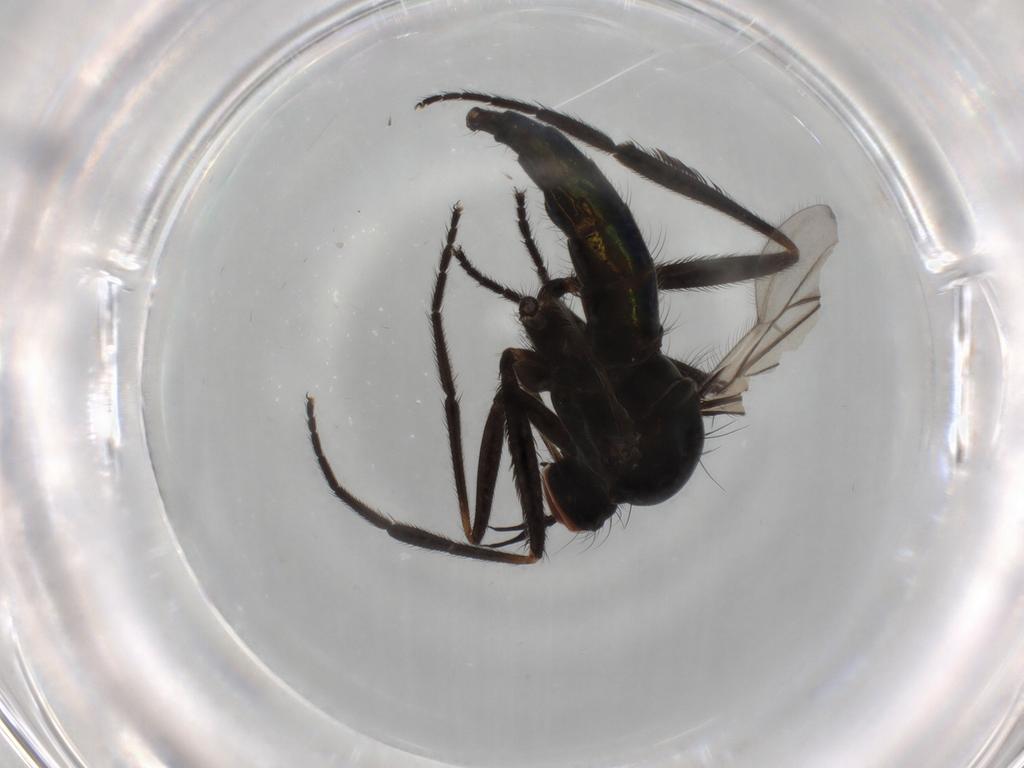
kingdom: Animalia
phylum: Arthropoda
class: Insecta
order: Diptera
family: Empididae
